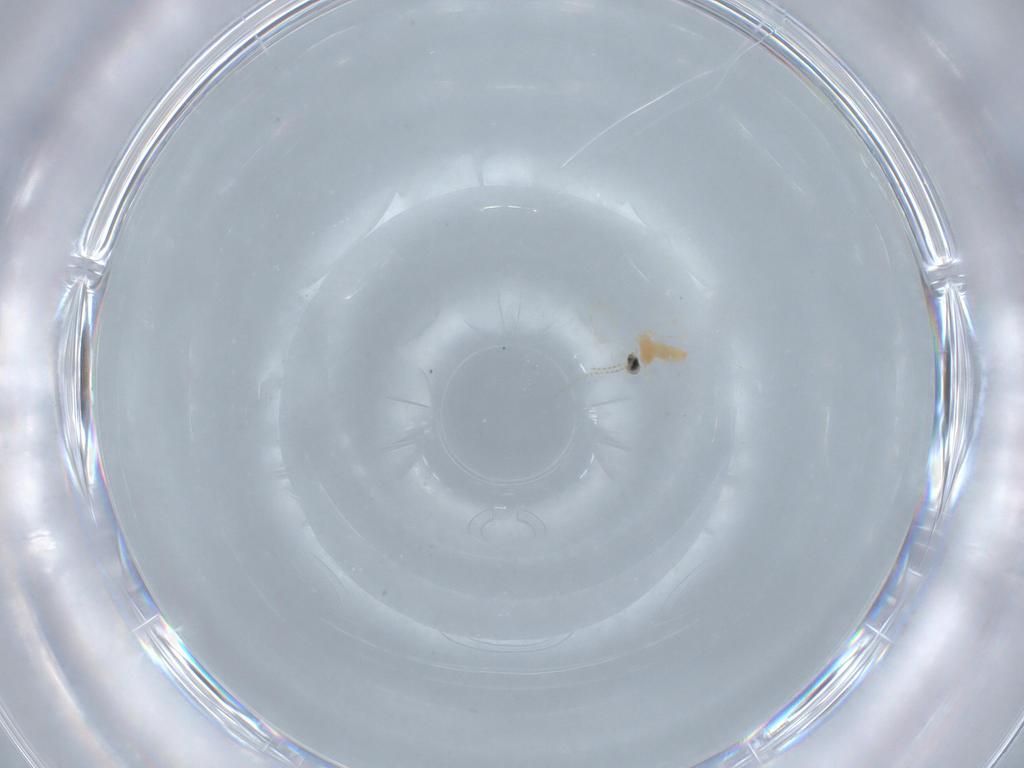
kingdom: Animalia
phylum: Arthropoda
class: Insecta
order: Diptera
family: Cecidomyiidae
